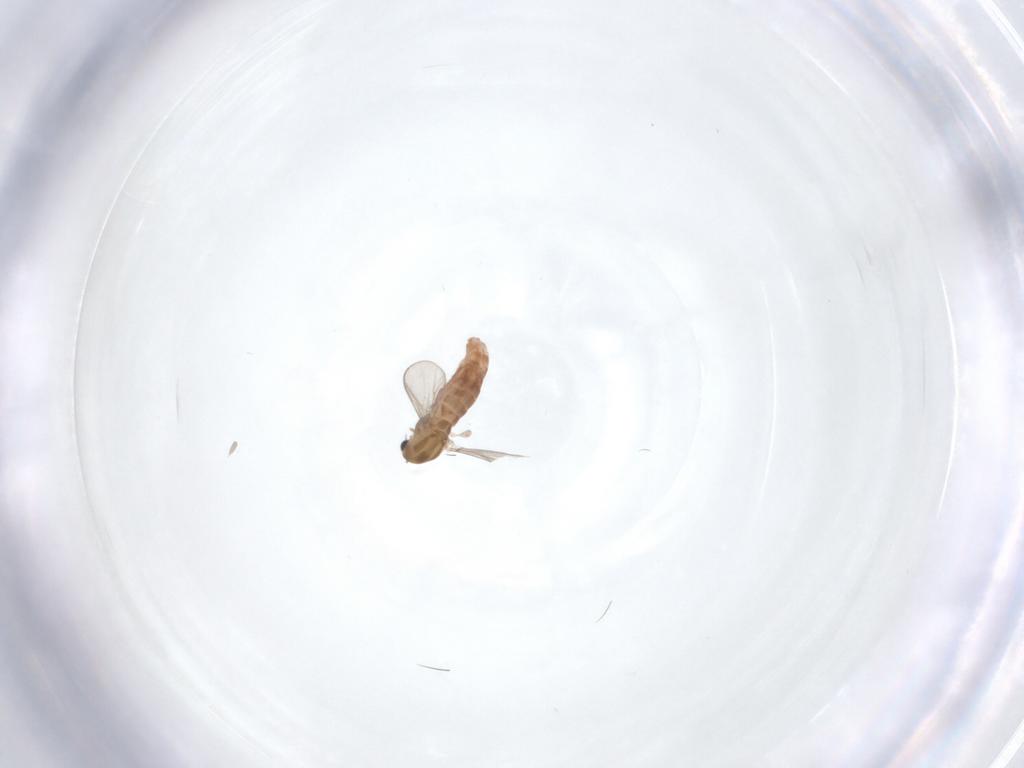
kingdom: Animalia
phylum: Arthropoda
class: Insecta
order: Diptera
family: Chironomidae
